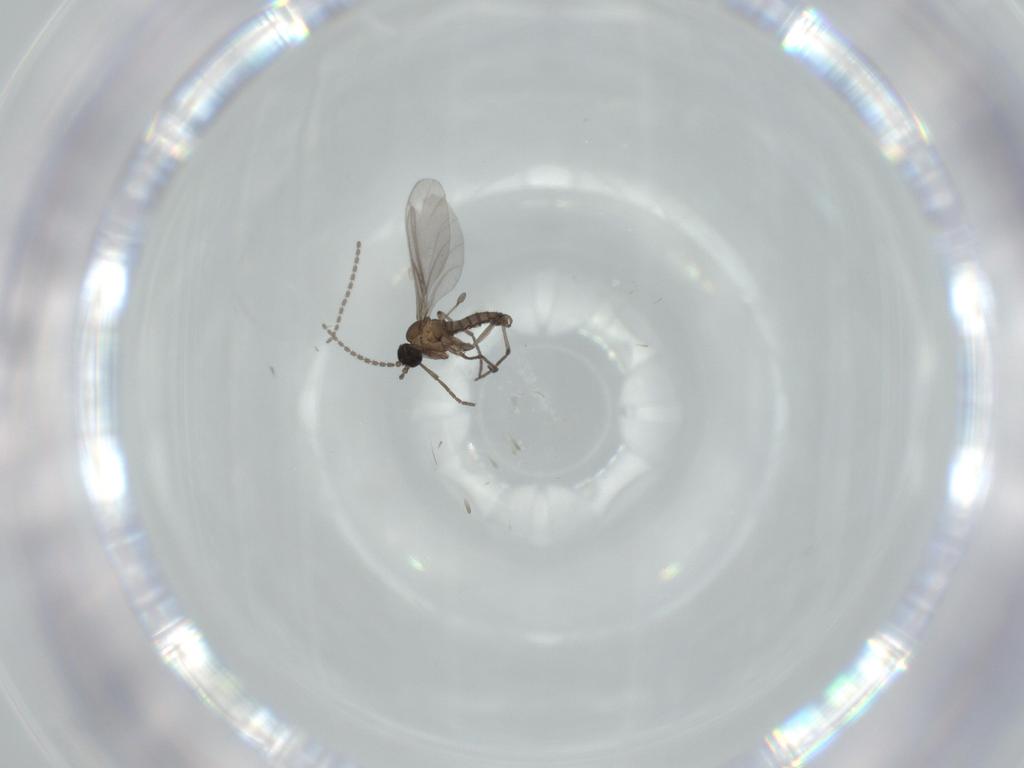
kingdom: Animalia
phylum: Arthropoda
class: Insecta
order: Diptera
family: Sciaridae
